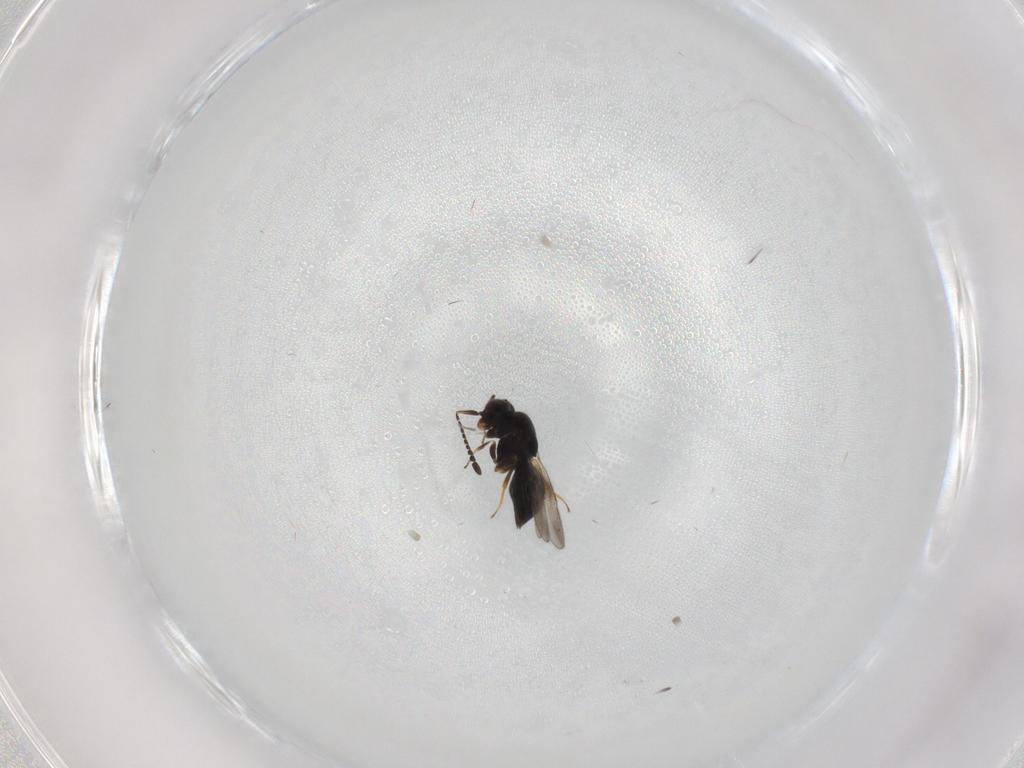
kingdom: Animalia
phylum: Arthropoda
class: Insecta
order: Hymenoptera
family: Ceraphronidae
